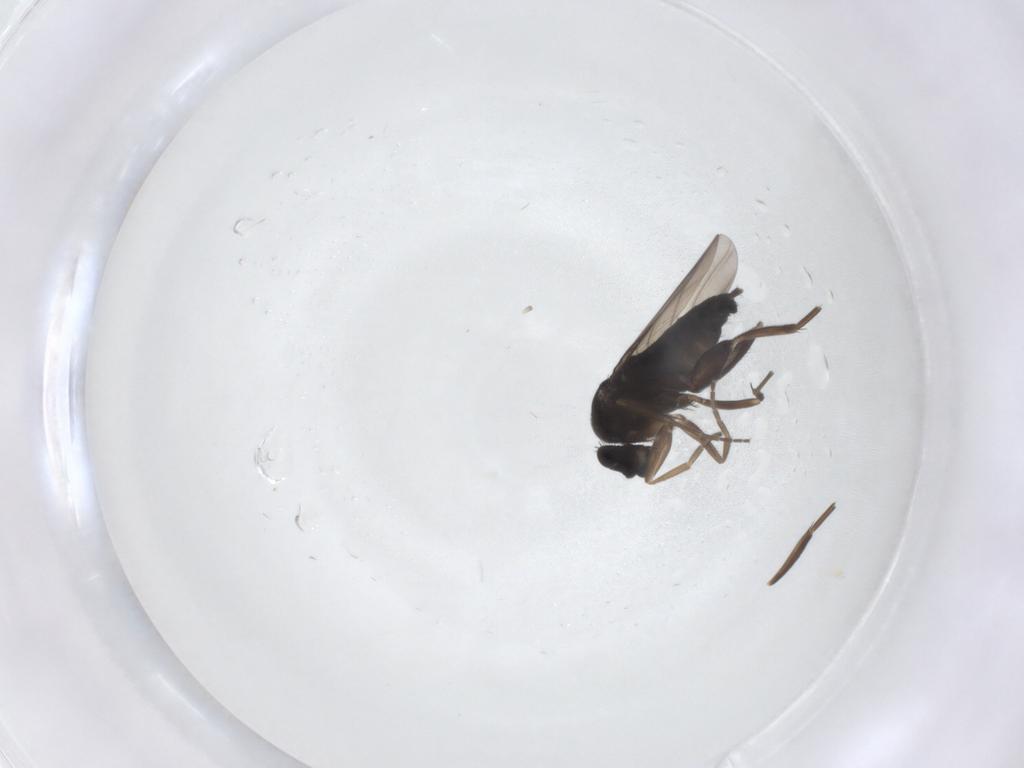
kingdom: Animalia
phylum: Arthropoda
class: Insecta
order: Diptera
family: Phoridae
